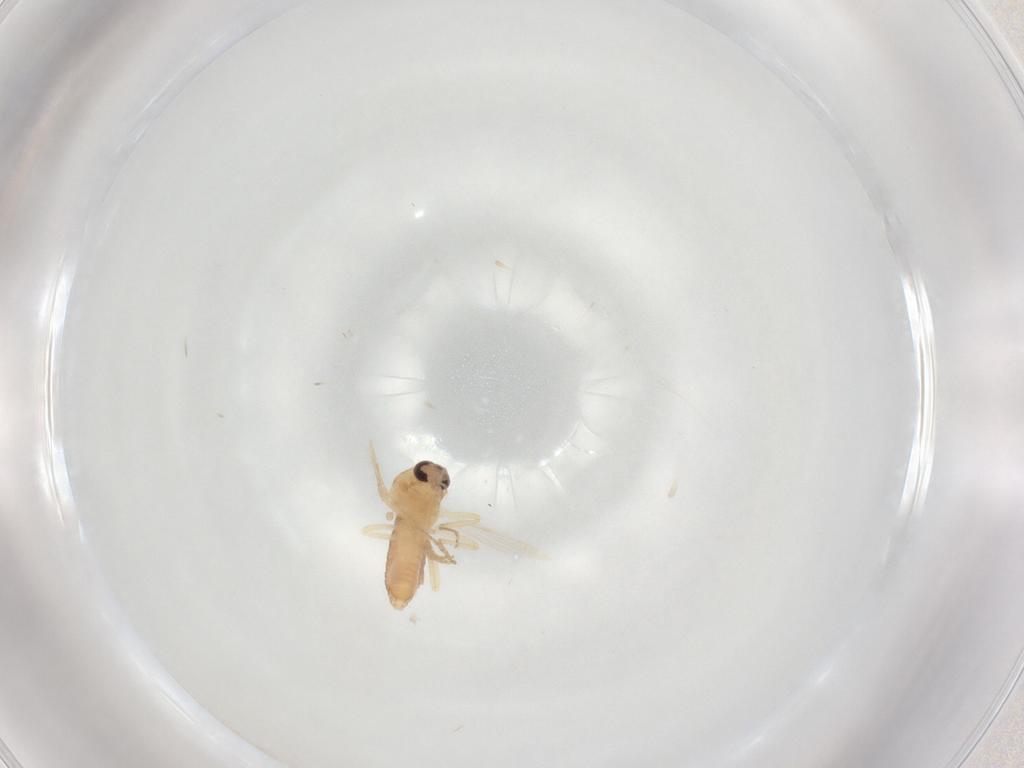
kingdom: Animalia
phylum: Arthropoda
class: Insecta
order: Diptera
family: Ceratopogonidae
